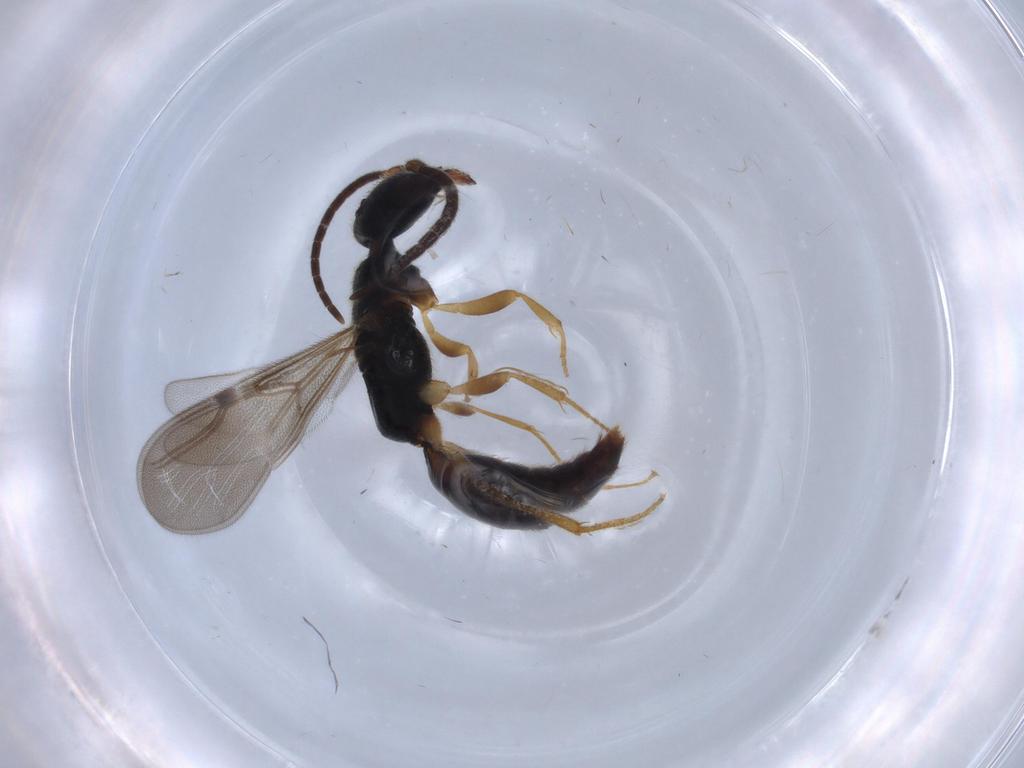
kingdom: Animalia
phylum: Arthropoda
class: Insecta
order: Hymenoptera
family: Bethylidae
